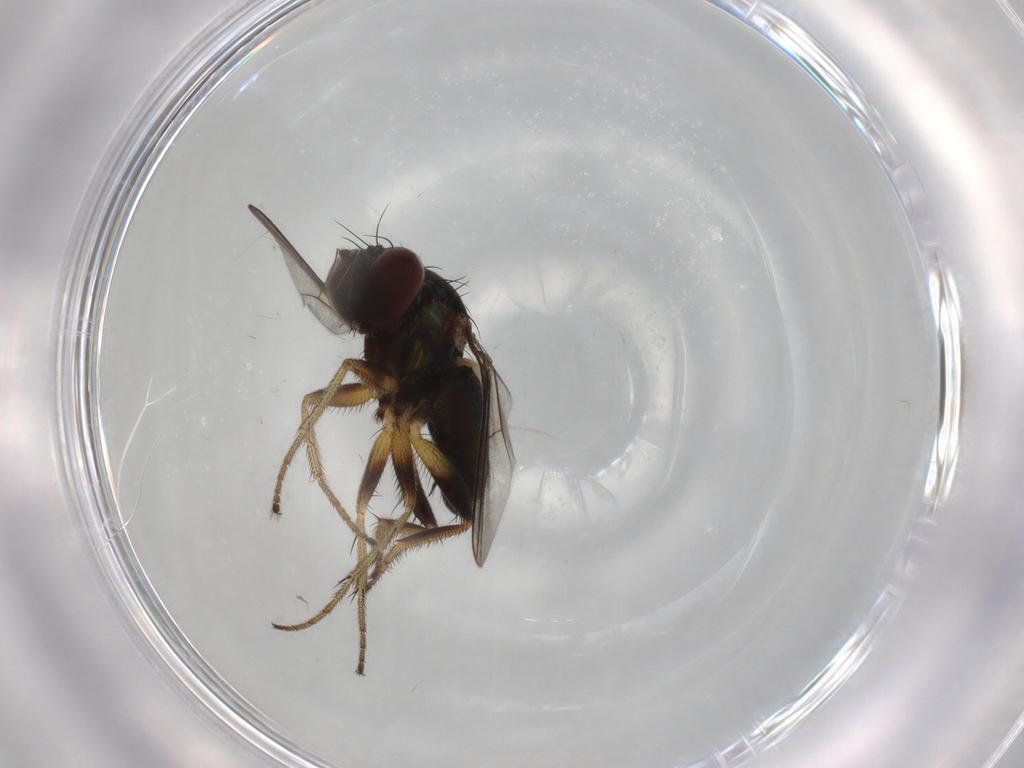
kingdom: Animalia
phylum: Arthropoda
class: Insecta
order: Diptera
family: Dolichopodidae
